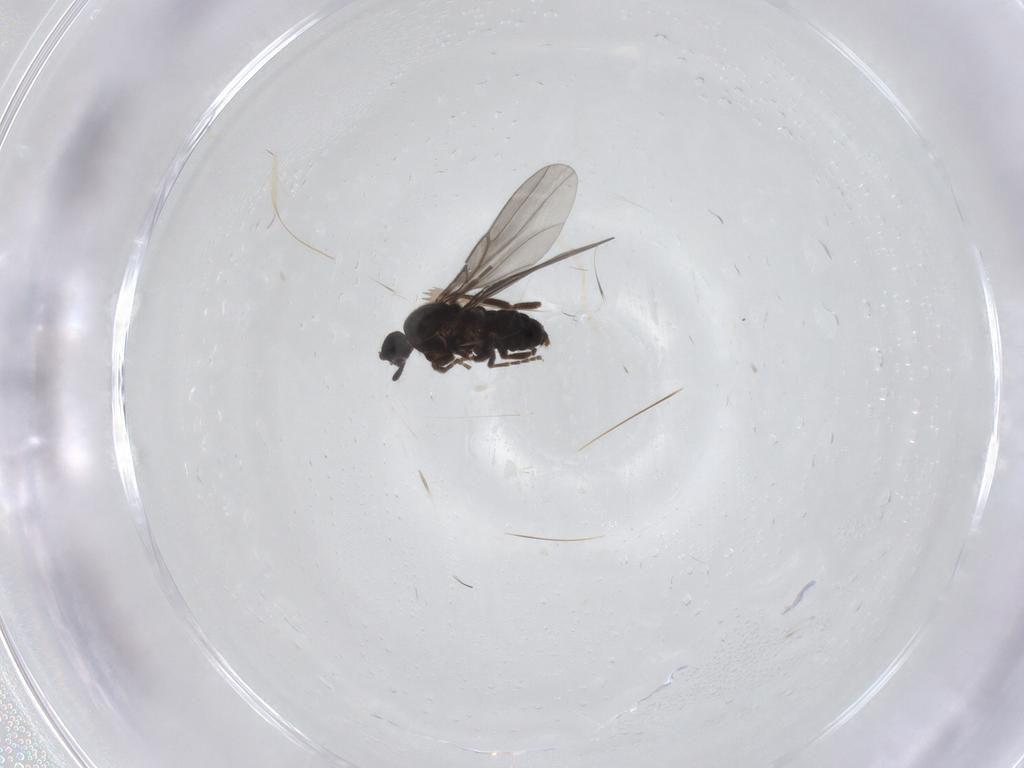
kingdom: Animalia
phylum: Arthropoda
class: Insecta
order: Diptera
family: Phoridae
